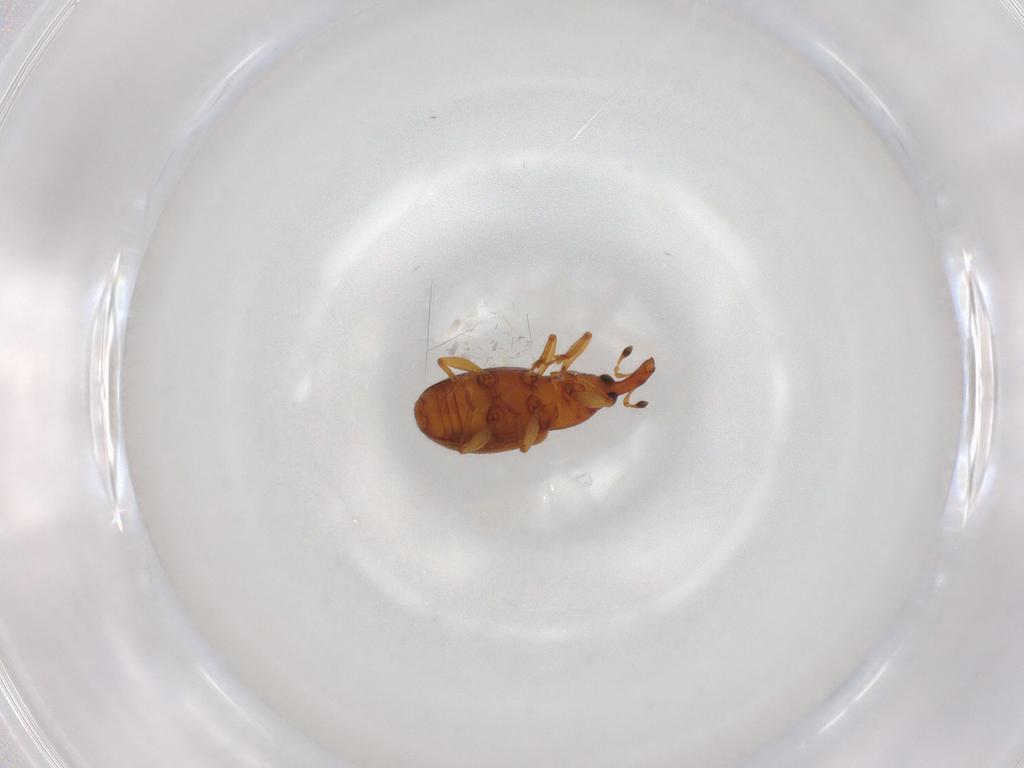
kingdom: Animalia
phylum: Arthropoda
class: Insecta
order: Coleoptera
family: Curculionidae
